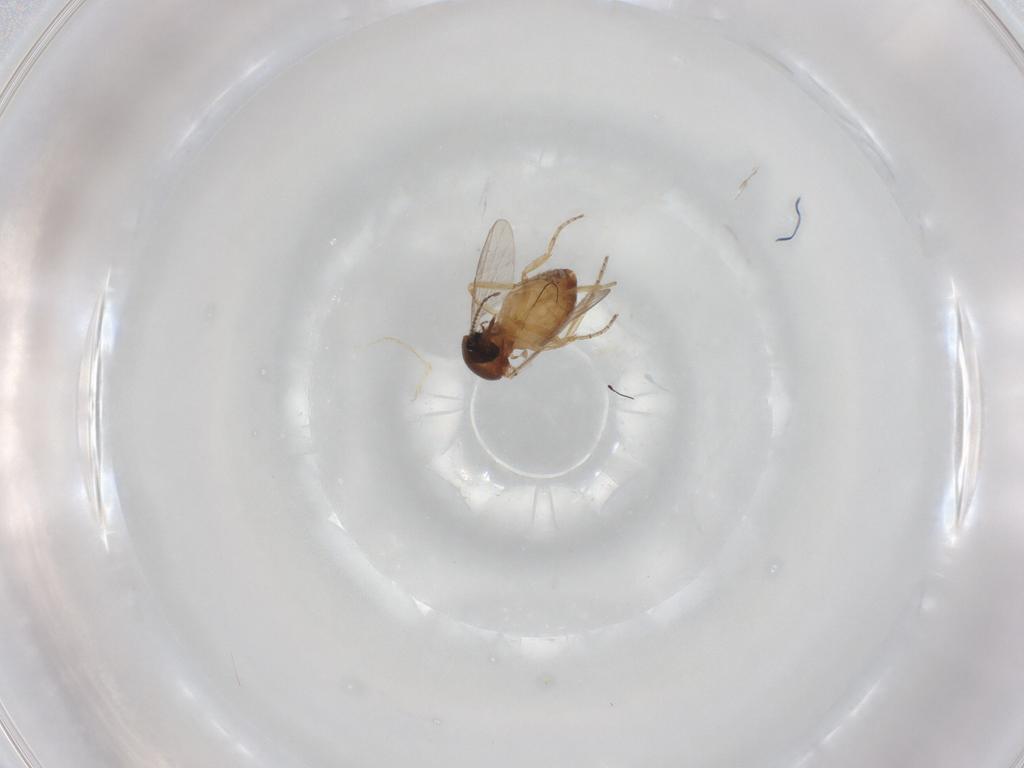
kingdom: Animalia
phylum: Arthropoda
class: Insecta
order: Diptera
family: Ceratopogonidae
